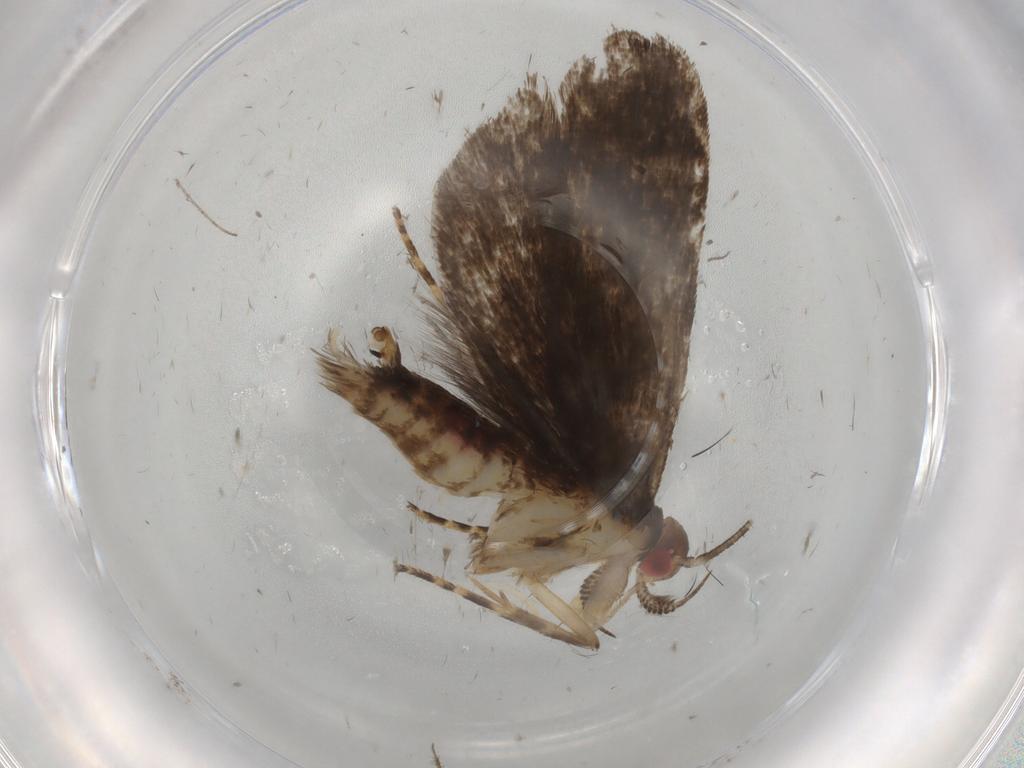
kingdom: Animalia
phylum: Arthropoda
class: Insecta
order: Lepidoptera
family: Gelechiidae
